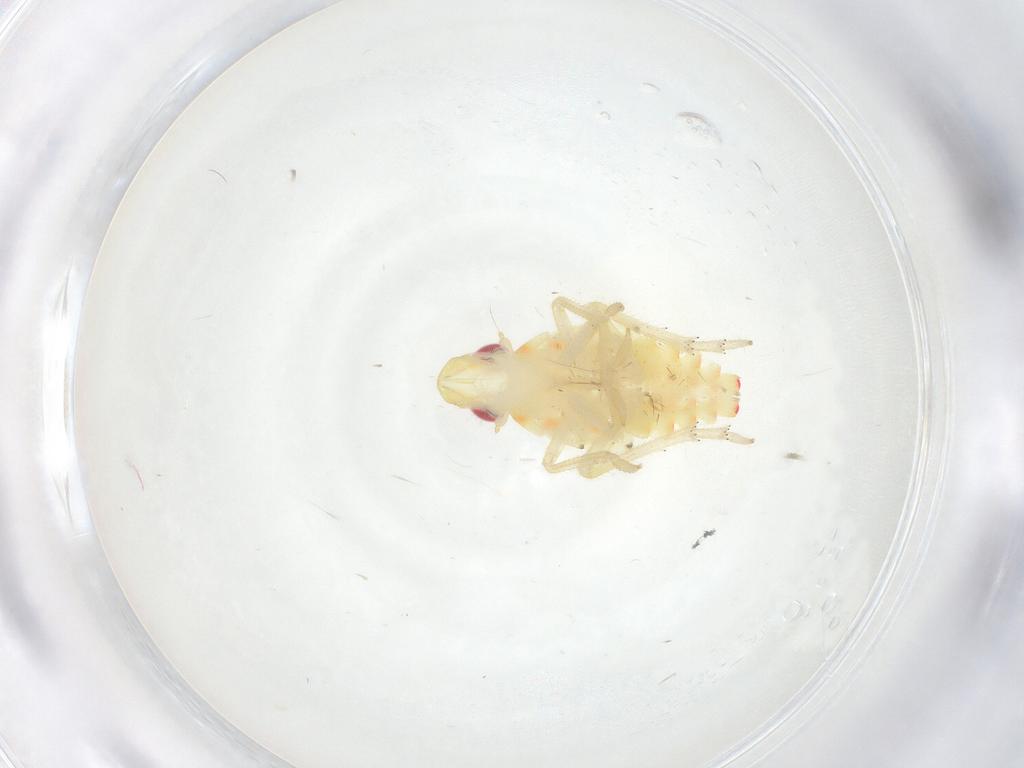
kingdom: Animalia
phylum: Arthropoda
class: Insecta
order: Hemiptera
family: Tropiduchidae
